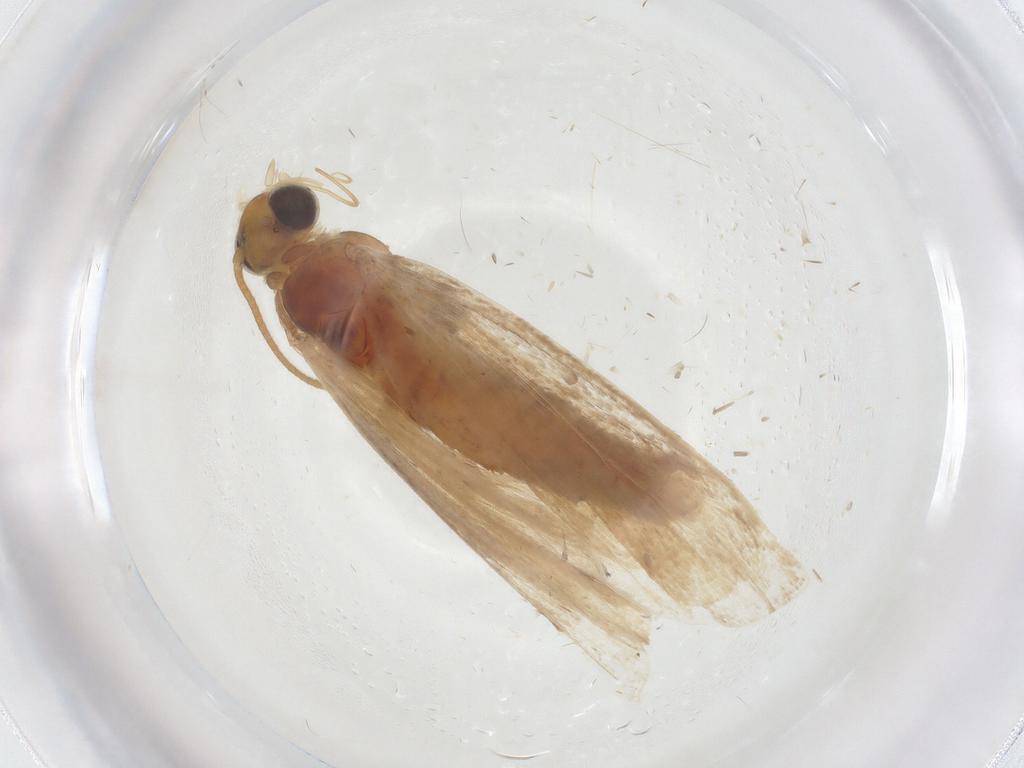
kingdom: Animalia
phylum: Arthropoda
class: Insecta
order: Lepidoptera
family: Pyralidae
